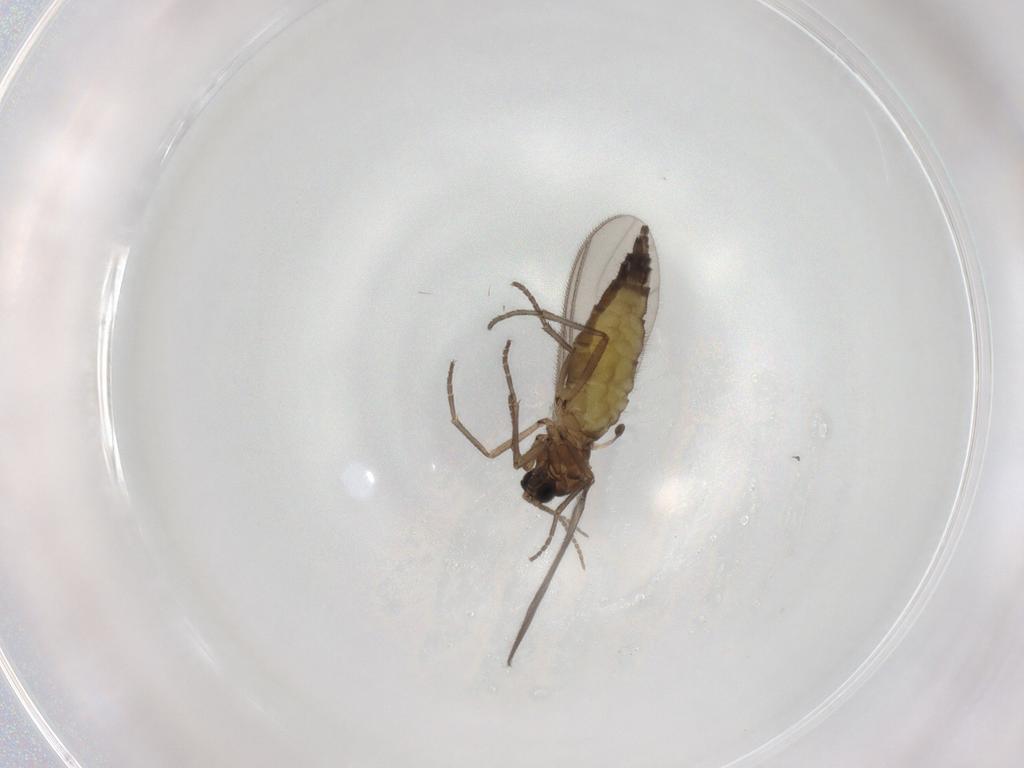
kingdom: Animalia
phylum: Arthropoda
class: Insecta
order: Diptera
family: Sciaridae
